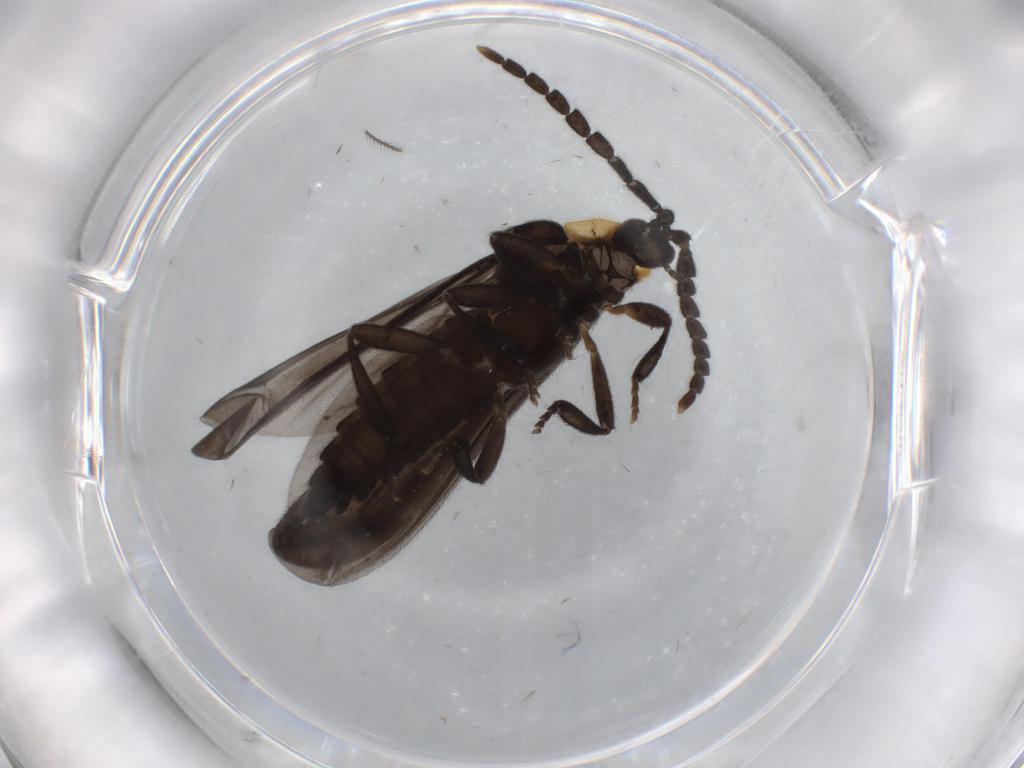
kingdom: Animalia
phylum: Arthropoda
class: Insecta
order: Coleoptera
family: Lycidae
